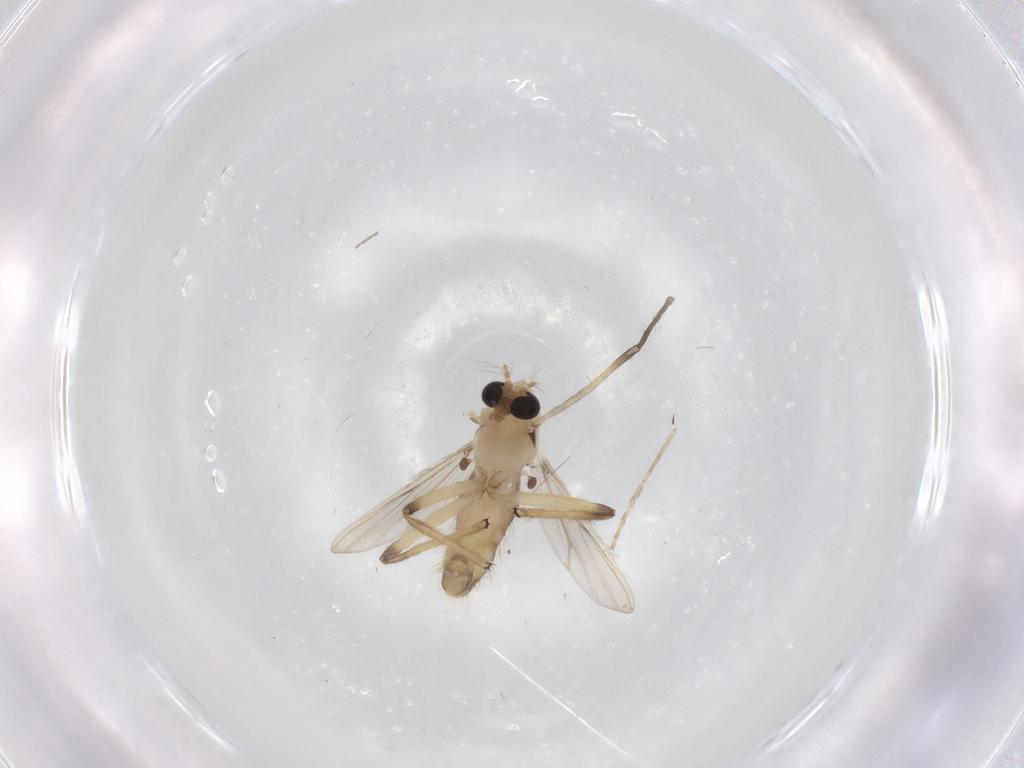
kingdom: Animalia
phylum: Arthropoda
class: Insecta
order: Diptera
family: Chironomidae
